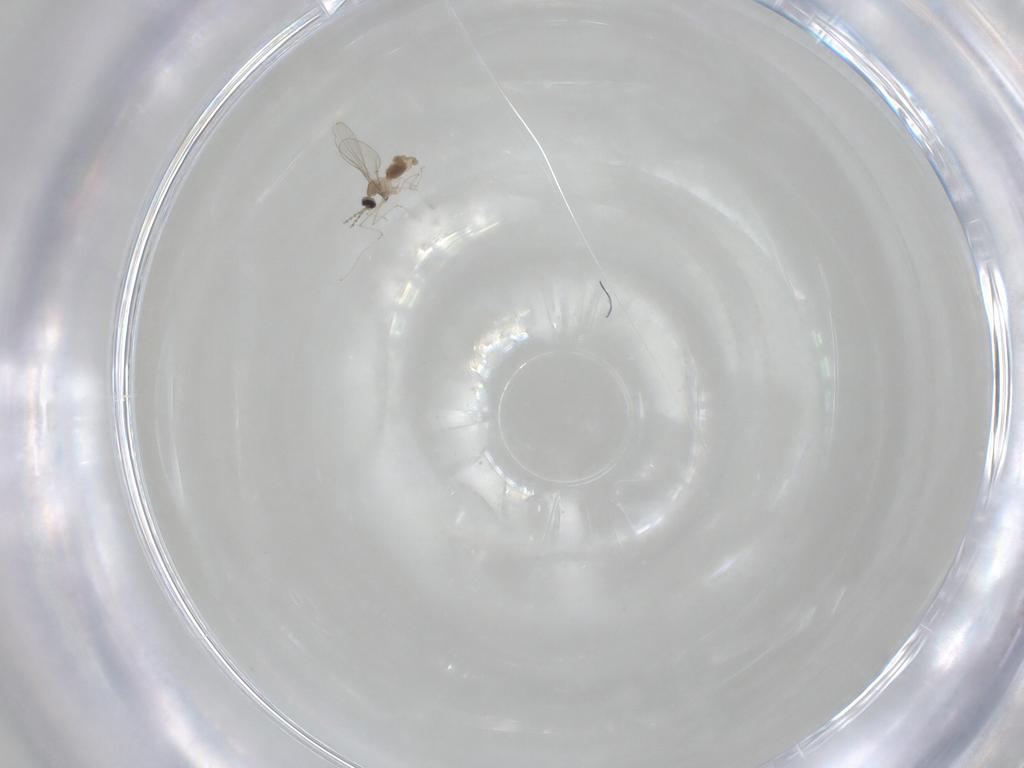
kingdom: Animalia
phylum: Arthropoda
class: Insecta
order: Diptera
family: Cecidomyiidae
